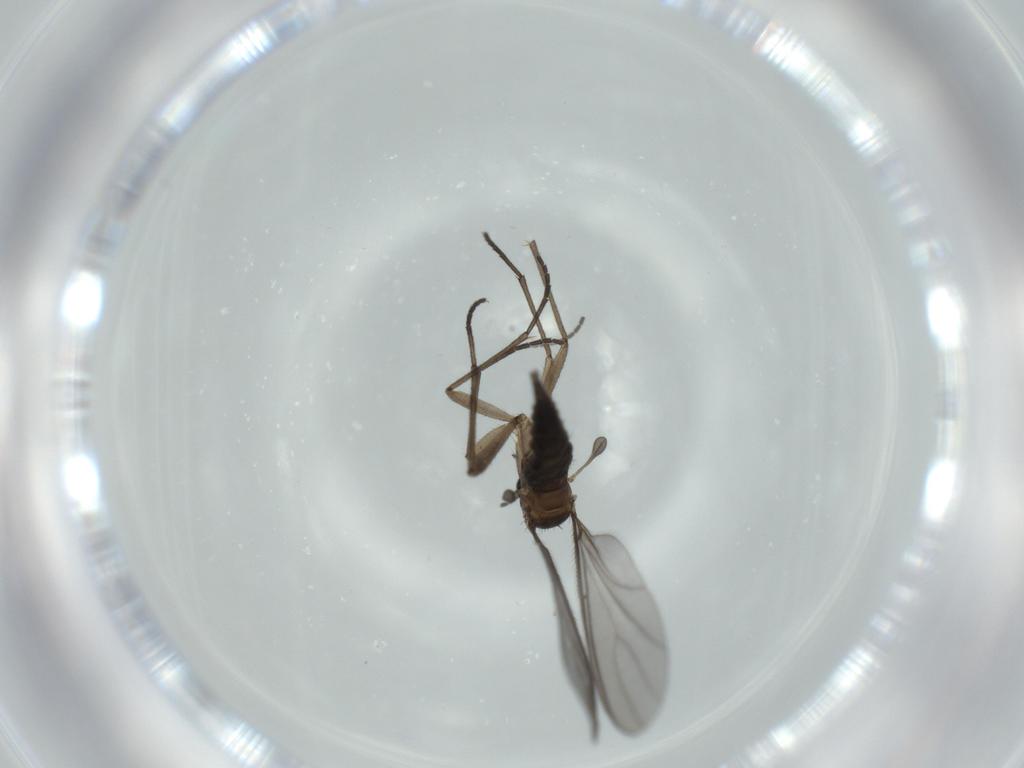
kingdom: Animalia
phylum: Arthropoda
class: Insecta
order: Diptera
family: Sciaridae
